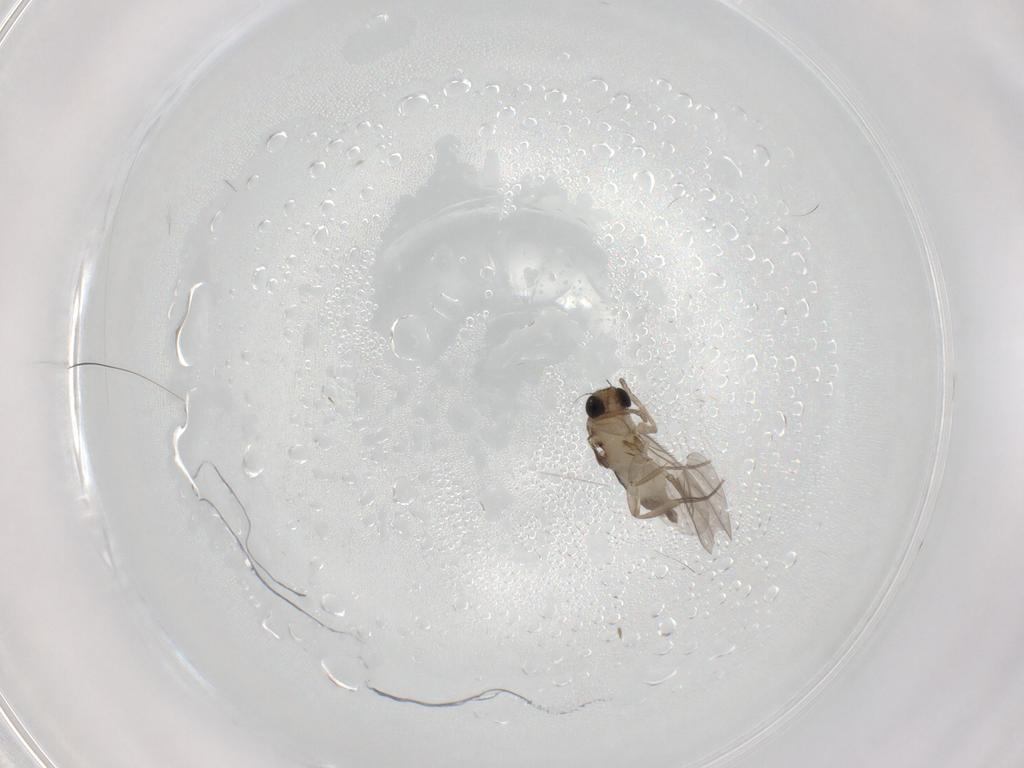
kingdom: Animalia
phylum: Arthropoda
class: Insecta
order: Diptera
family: Phoridae
